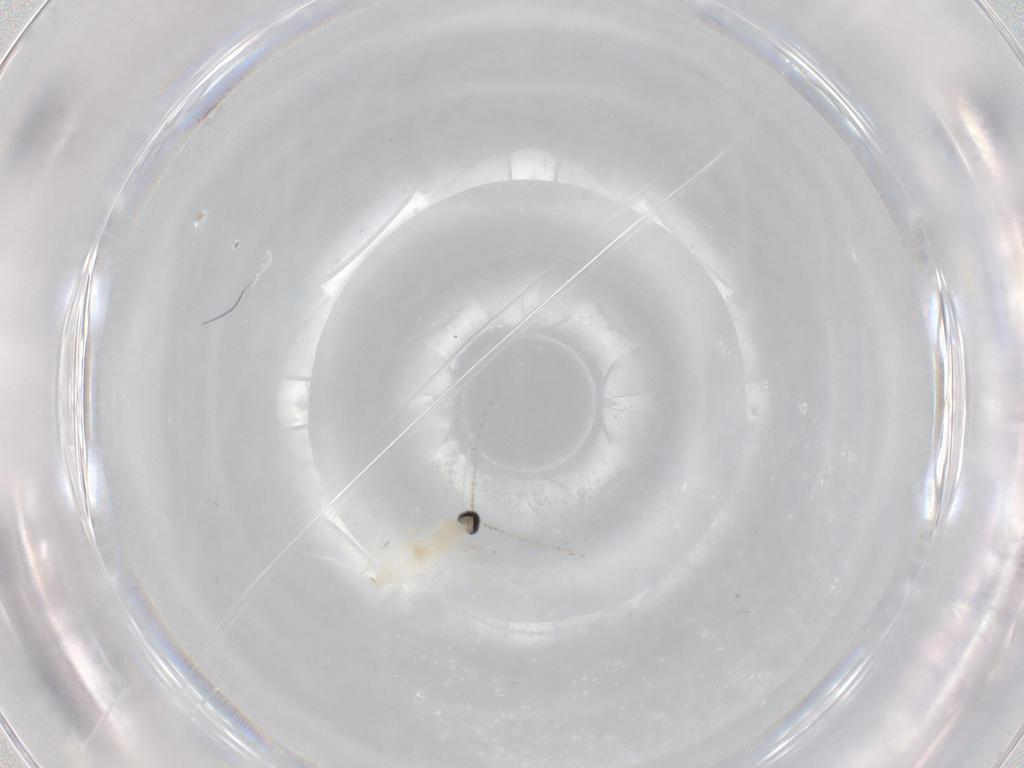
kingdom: Animalia
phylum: Arthropoda
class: Insecta
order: Diptera
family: Cecidomyiidae
